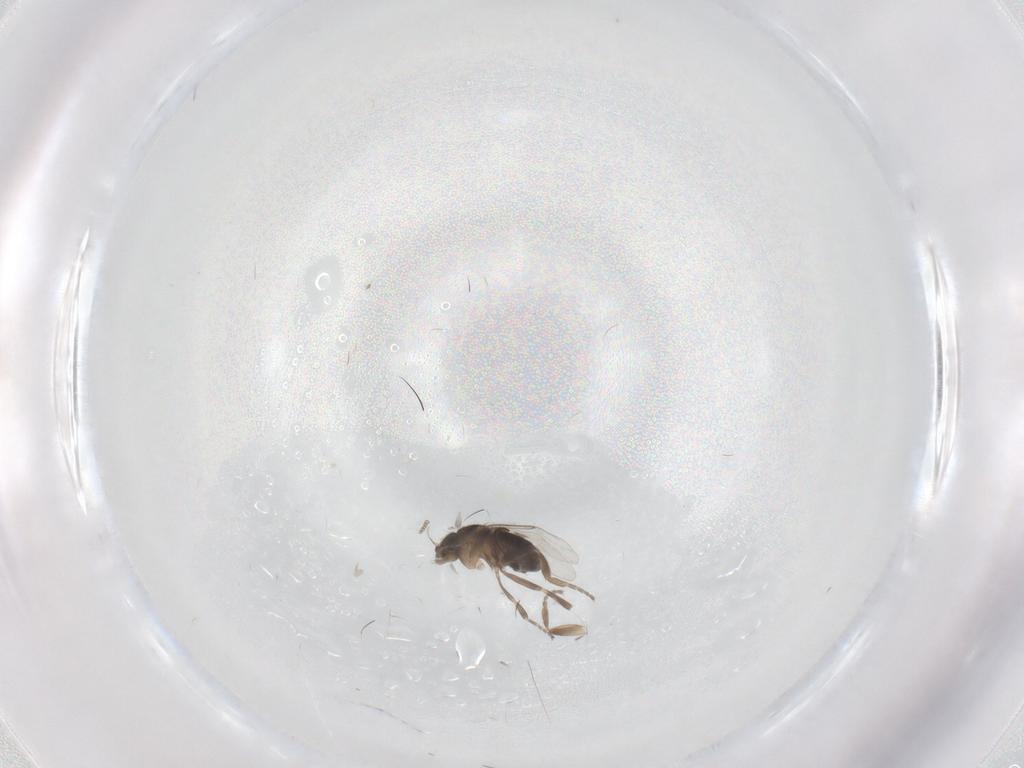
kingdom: Animalia
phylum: Arthropoda
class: Insecta
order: Diptera
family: Phoridae
